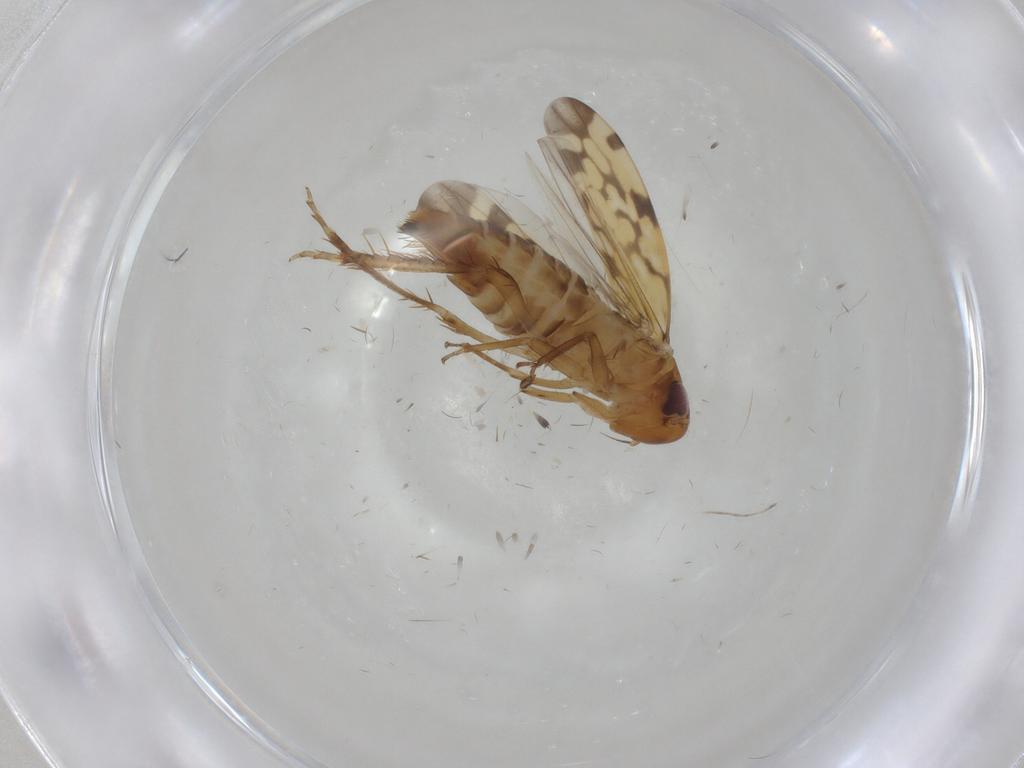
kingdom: Animalia
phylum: Arthropoda
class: Insecta
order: Hemiptera
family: Cicadellidae
